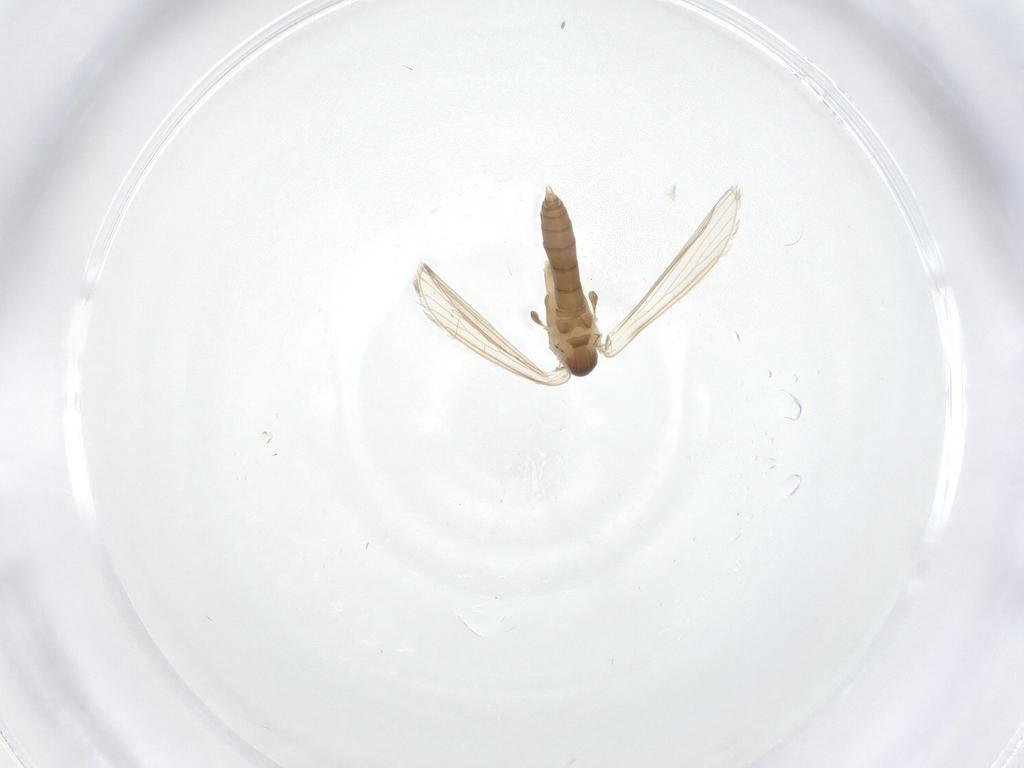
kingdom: Animalia
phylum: Arthropoda
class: Insecta
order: Diptera
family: Psychodidae
